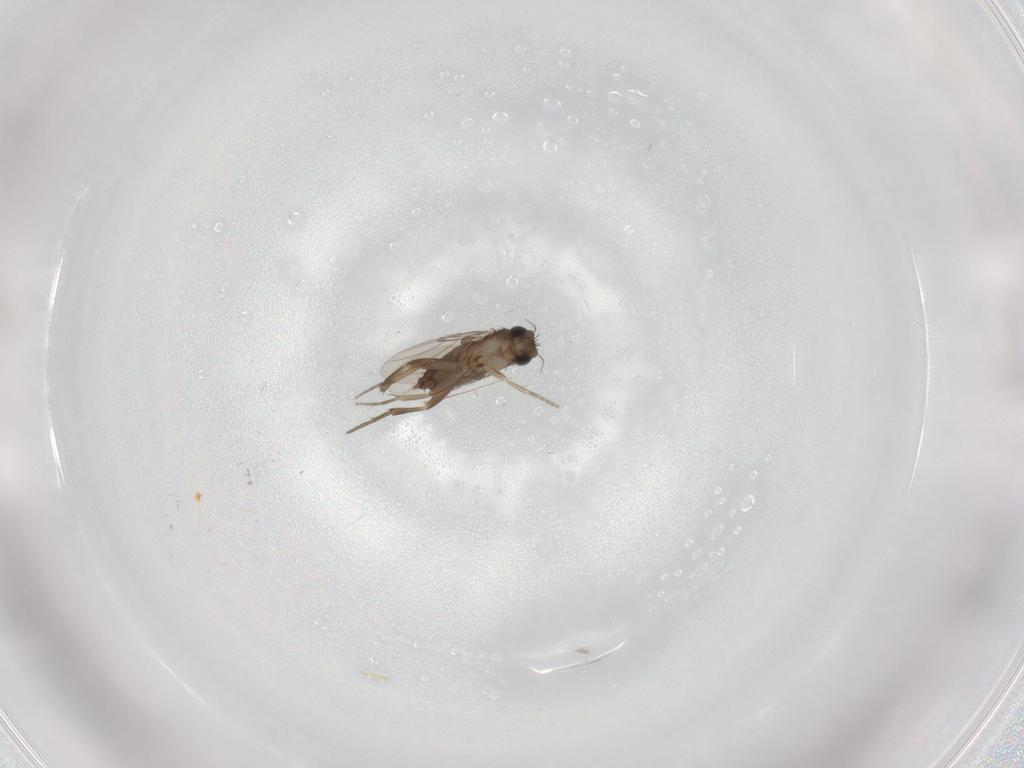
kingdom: Animalia
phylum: Arthropoda
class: Insecta
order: Diptera
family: Phoridae
